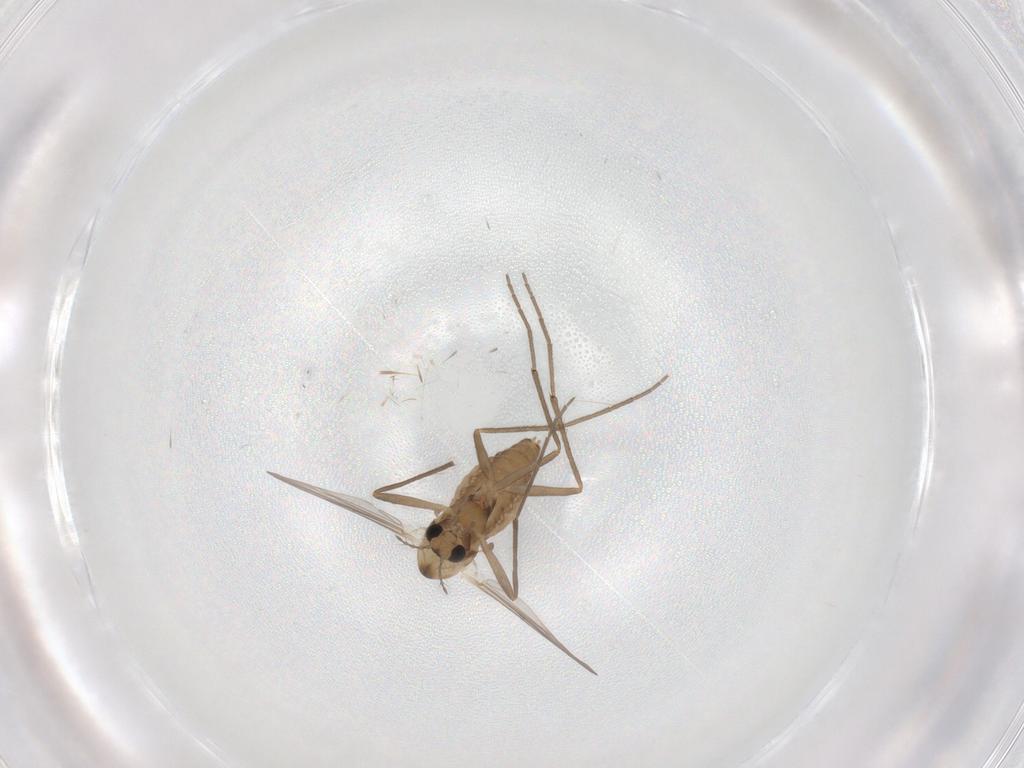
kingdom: Animalia
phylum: Arthropoda
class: Insecta
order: Diptera
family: Chironomidae
